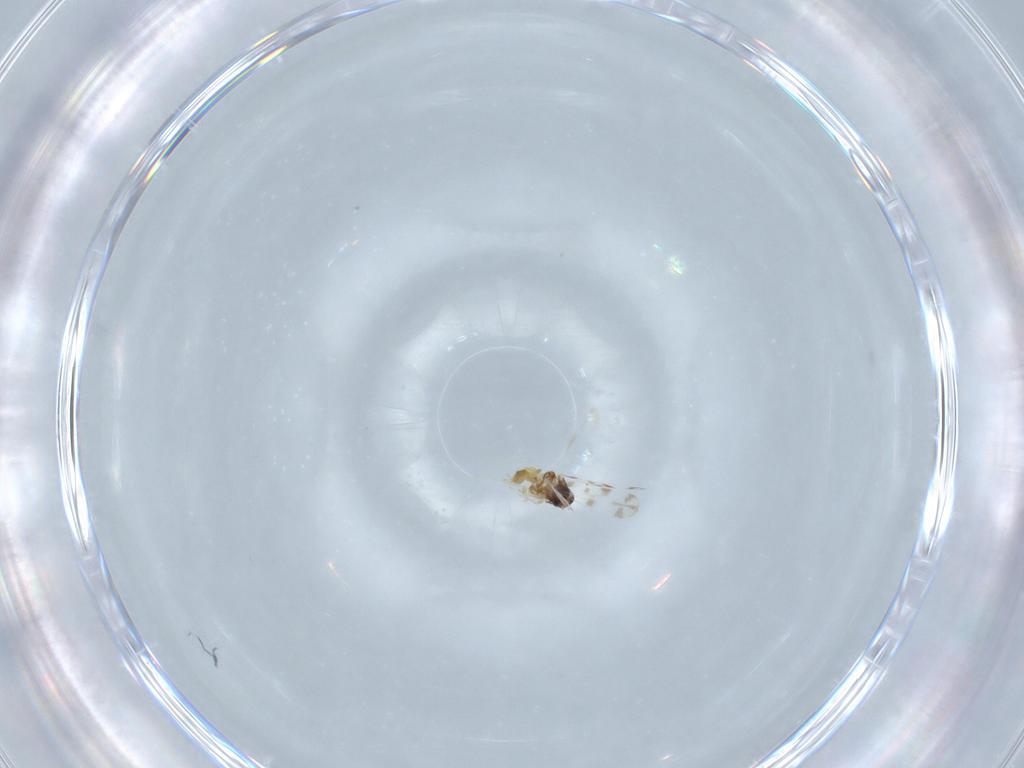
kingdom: Animalia
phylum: Arthropoda
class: Insecta
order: Hemiptera
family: Aleyrodidae
